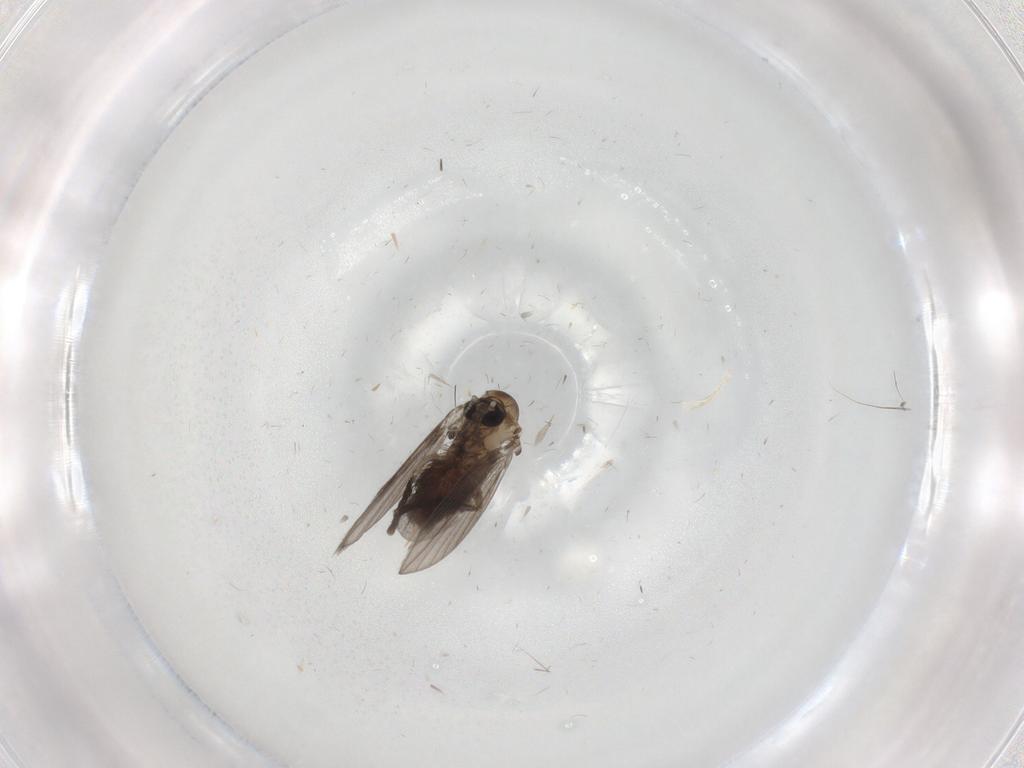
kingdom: Animalia
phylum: Arthropoda
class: Insecta
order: Diptera
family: Psychodidae
